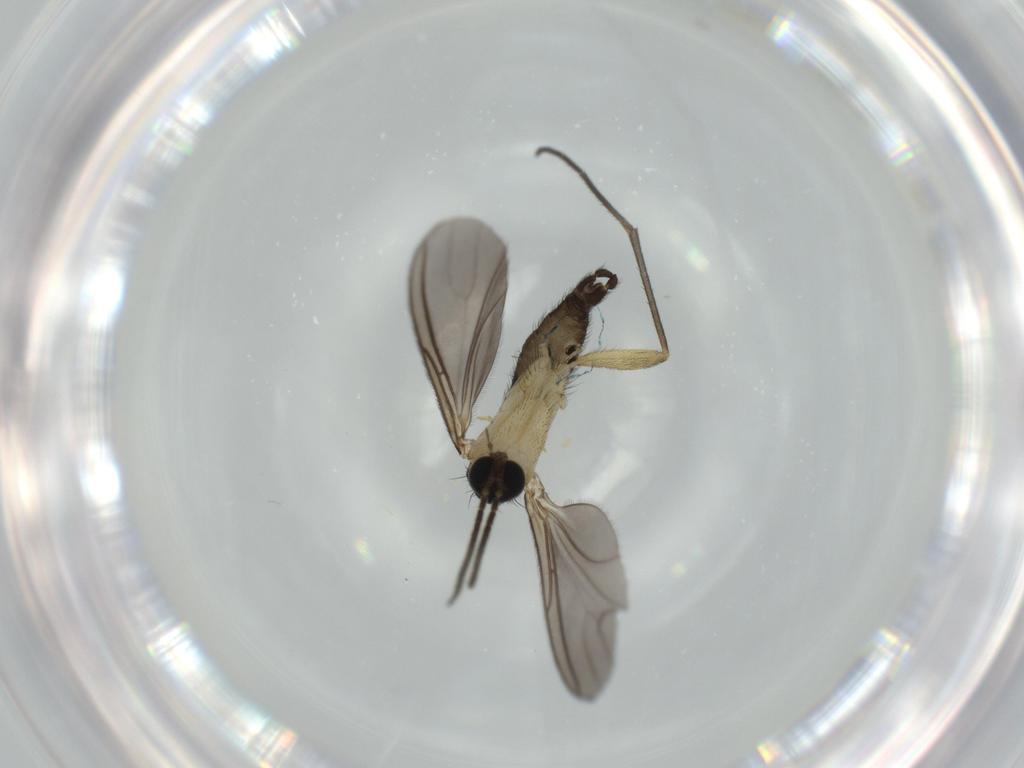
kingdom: Animalia
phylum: Arthropoda
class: Insecta
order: Diptera
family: Sciaridae
